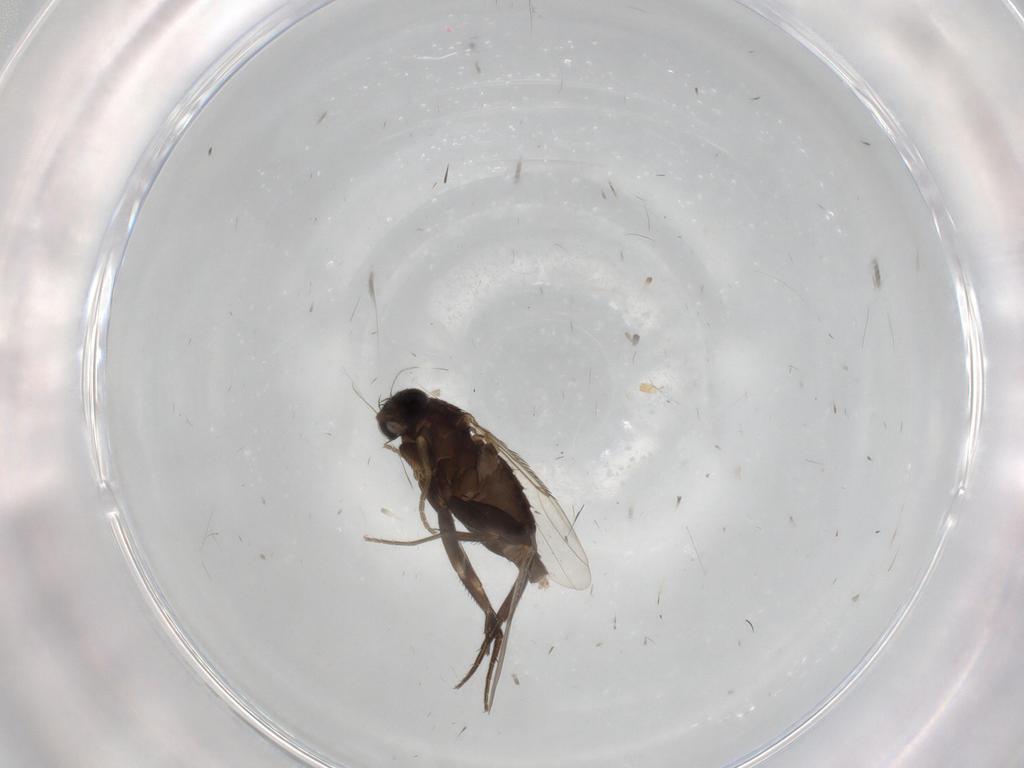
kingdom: Animalia
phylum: Arthropoda
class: Insecta
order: Diptera
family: Phoridae
